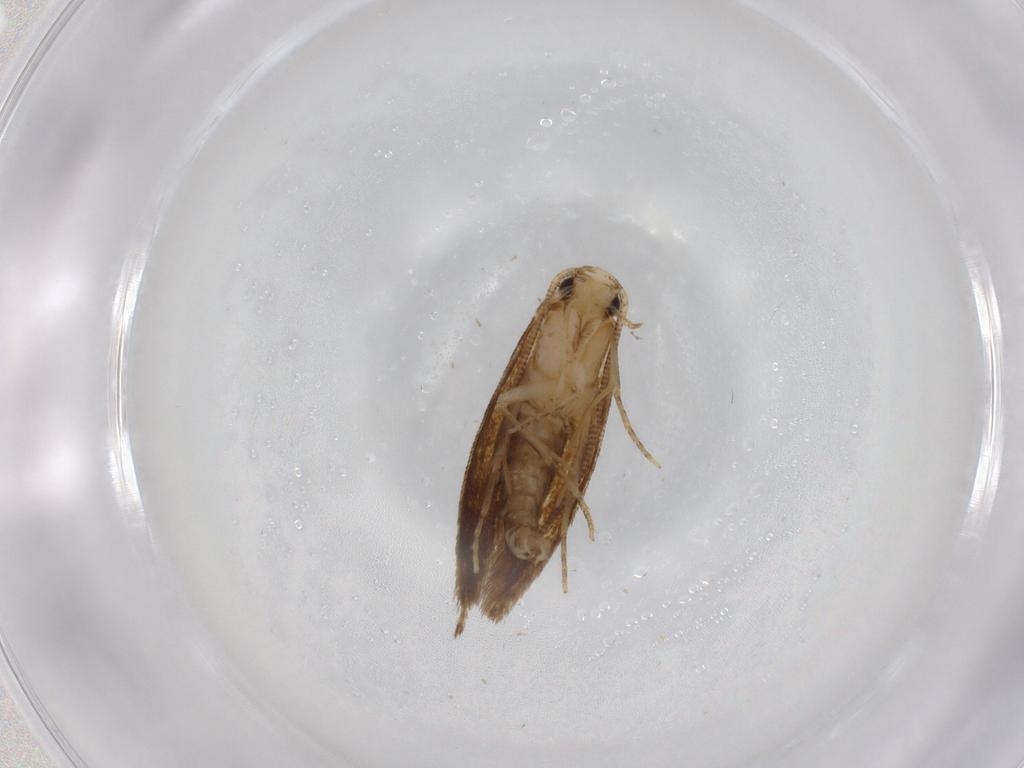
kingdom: Animalia
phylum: Arthropoda
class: Insecta
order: Lepidoptera
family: Tineidae
